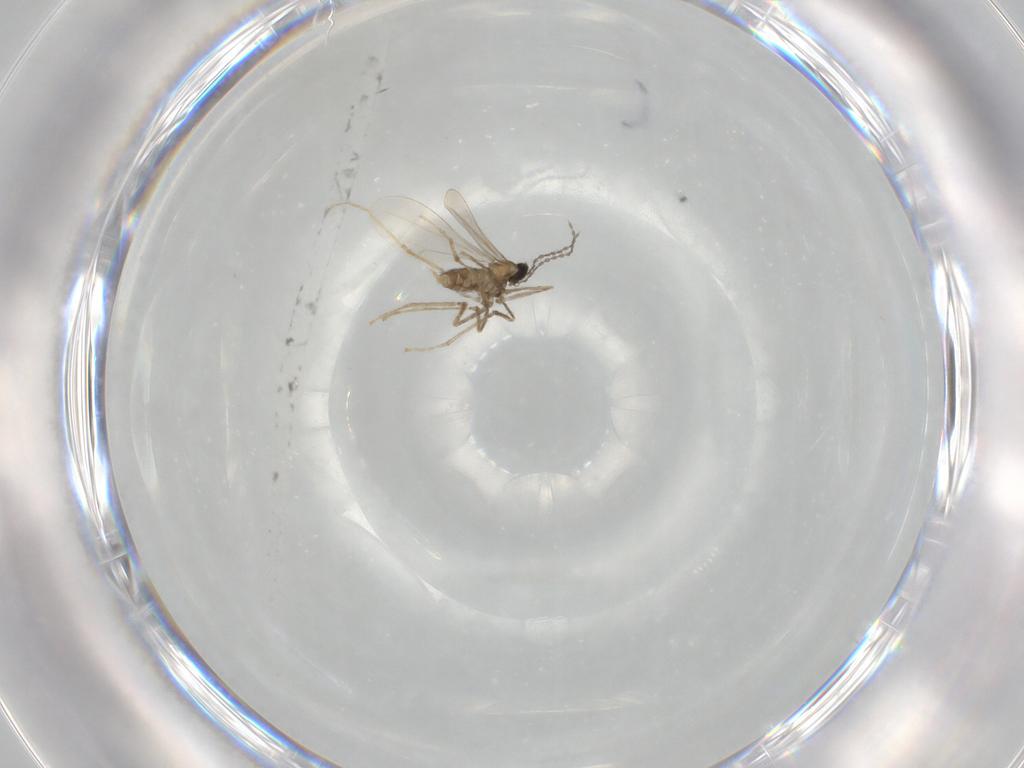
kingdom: Animalia
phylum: Arthropoda
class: Insecta
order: Diptera
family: Cecidomyiidae
